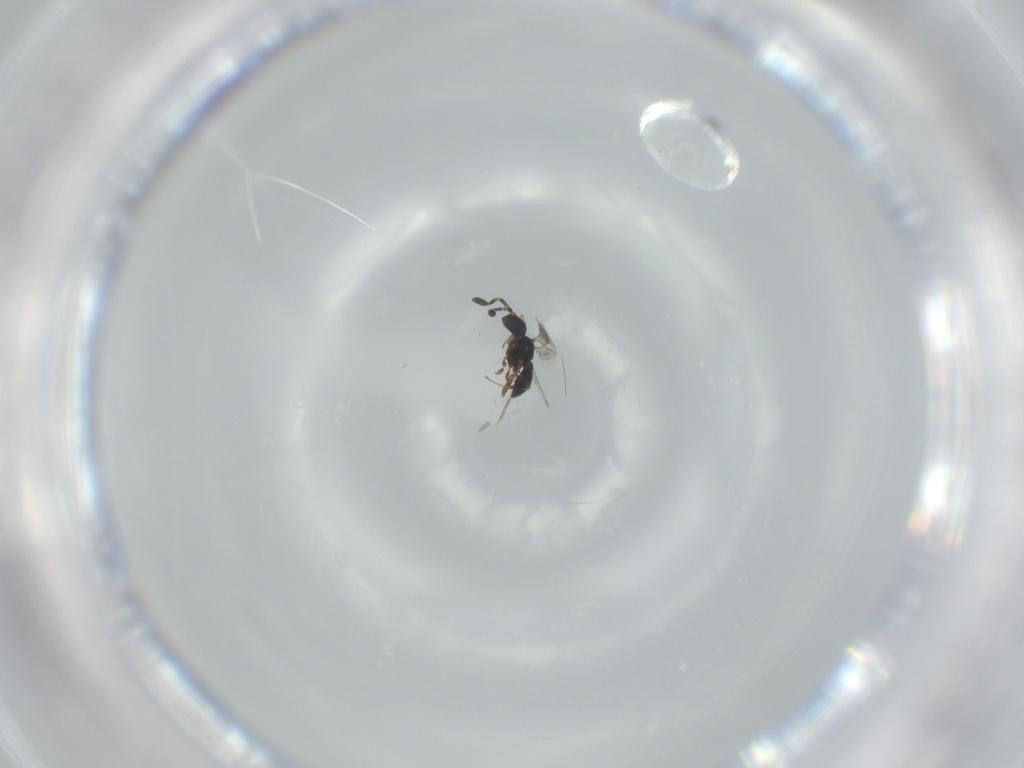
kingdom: Animalia
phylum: Arthropoda
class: Insecta
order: Hymenoptera
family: Scelionidae
